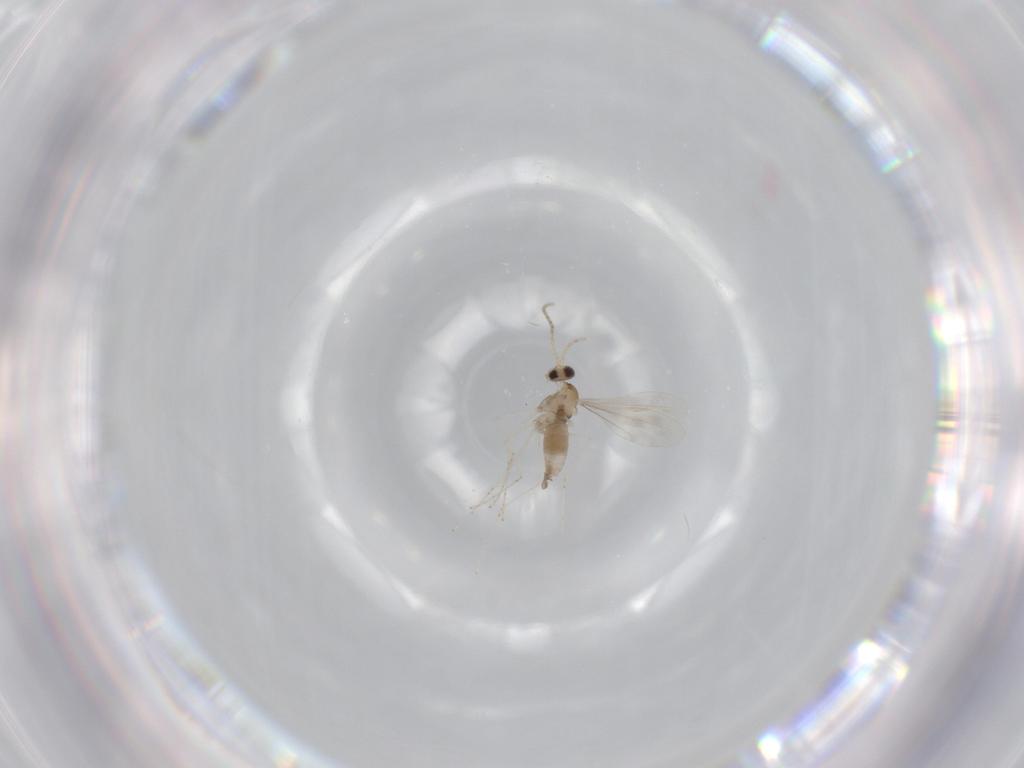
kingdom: Animalia
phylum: Arthropoda
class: Insecta
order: Diptera
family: Cecidomyiidae
